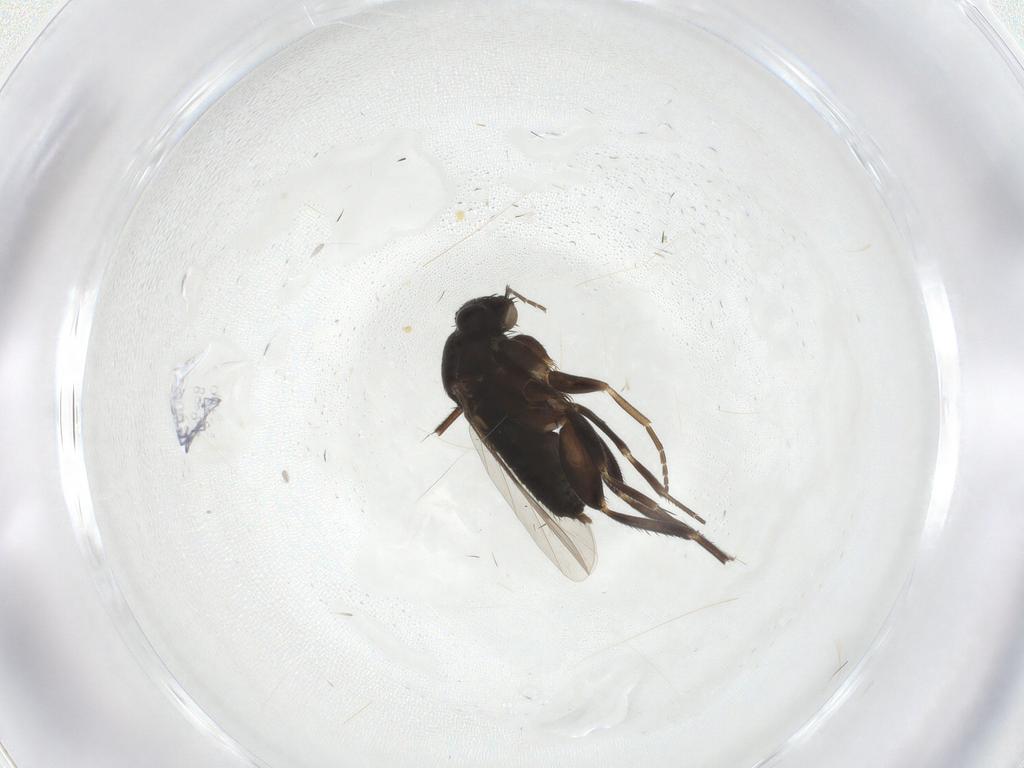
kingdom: Animalia
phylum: Arthropoda
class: Insecta
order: Diptera
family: Phoridae
